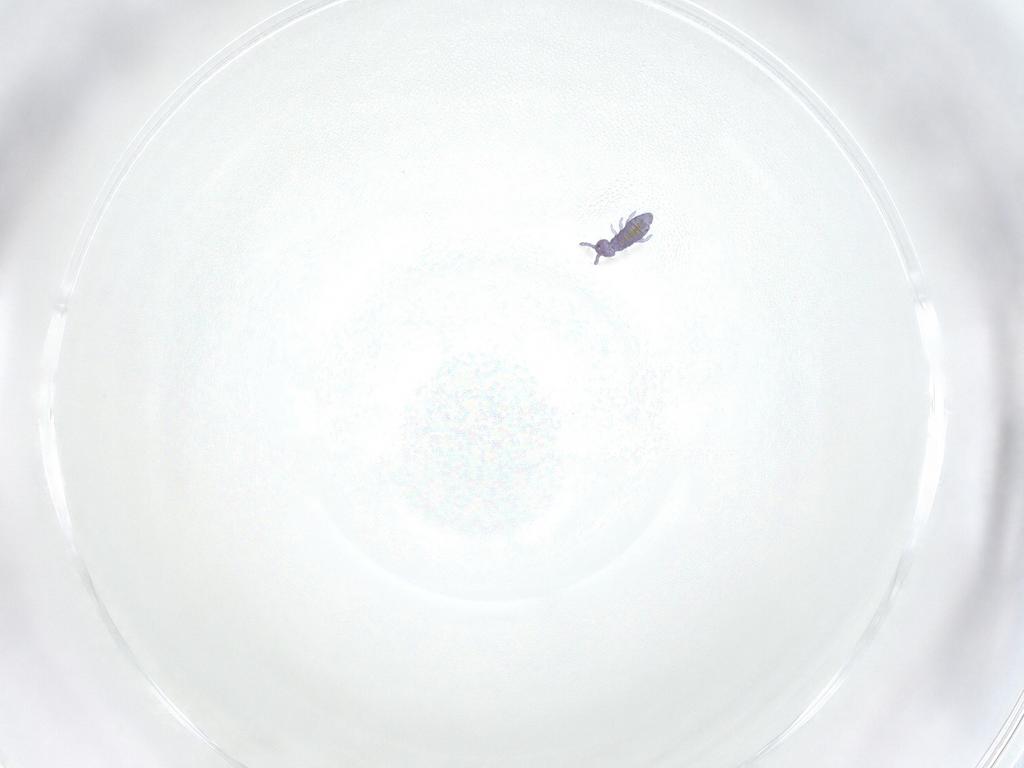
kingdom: Animalia
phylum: Arthropoda
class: Collembola
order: Entomobryomorpha
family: Isotomidae
